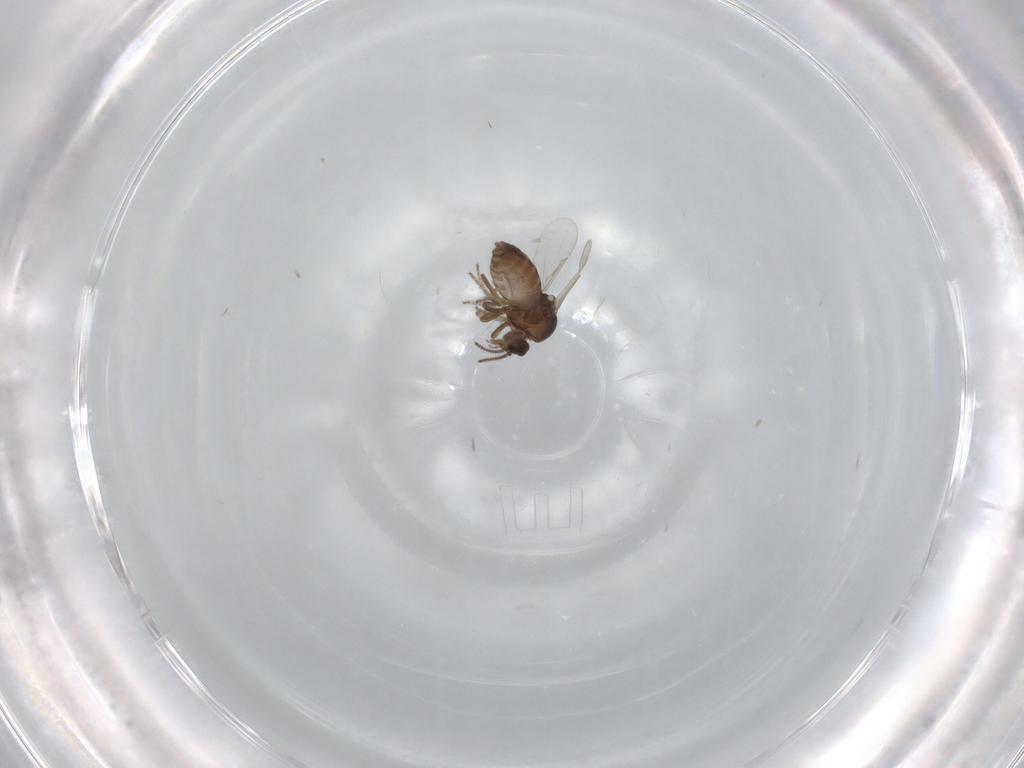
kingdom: Animalia
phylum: Arthropoda
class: Insecta
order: Diptera
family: Ceratopogonidae
